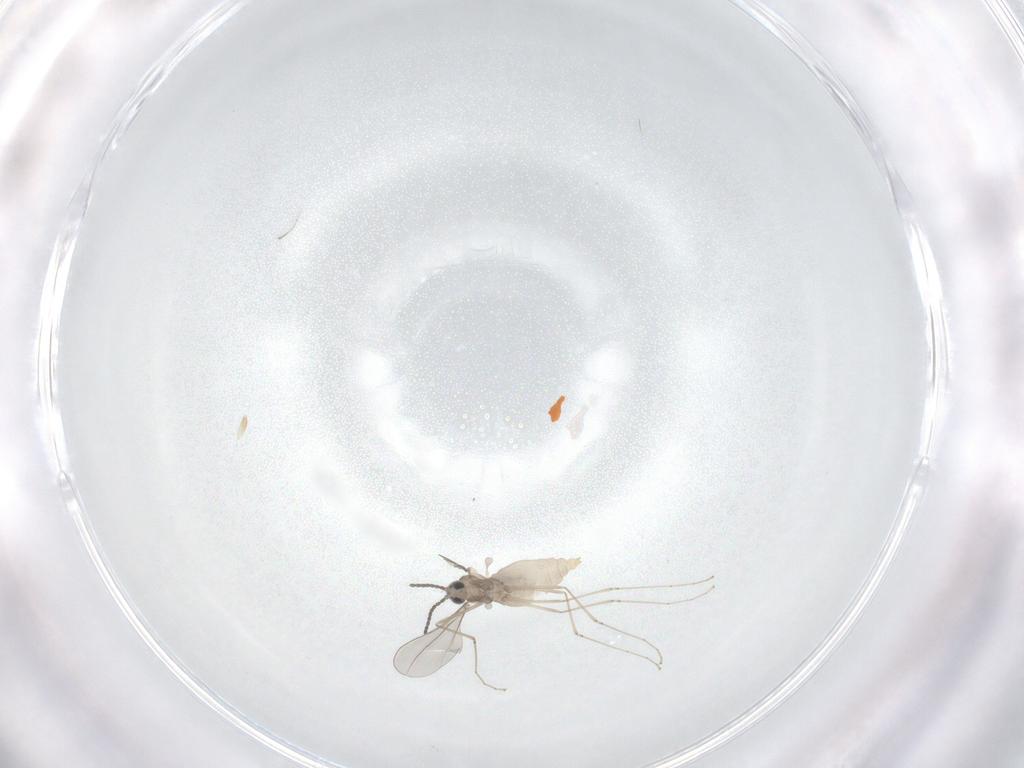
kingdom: Animalia
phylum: Arthropoda
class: Insecta
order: Diptera
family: Cecidomyiidae
